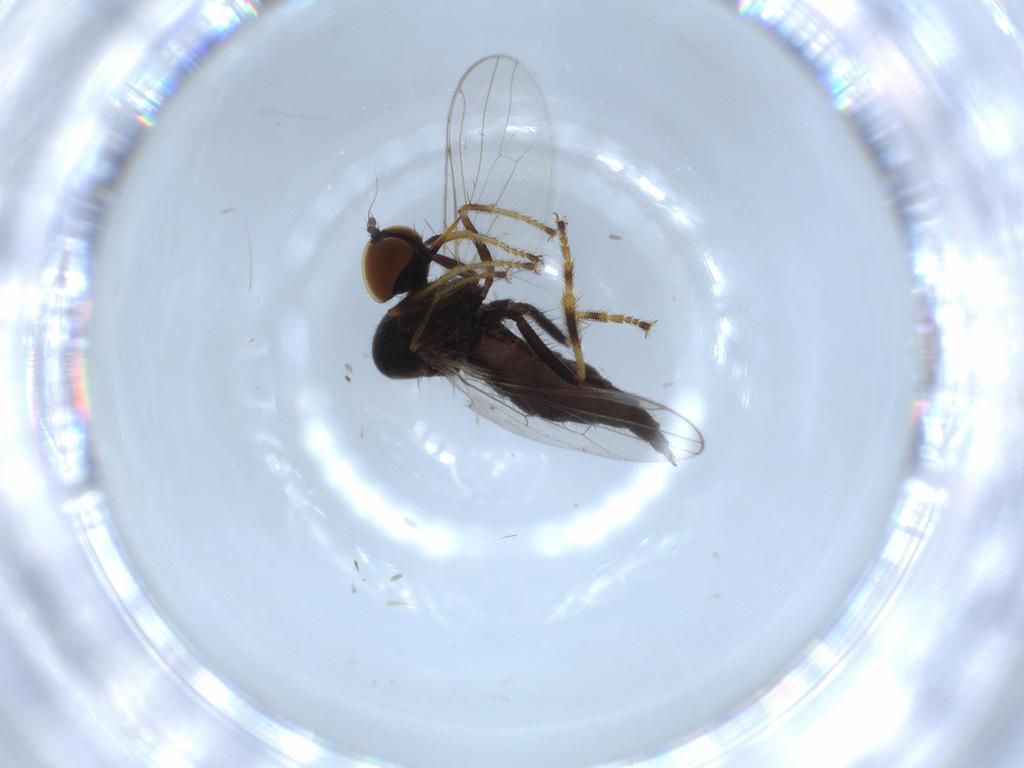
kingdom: Animalia
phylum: Arthropoda
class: Insecta
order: Diptera
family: Sciaridae
